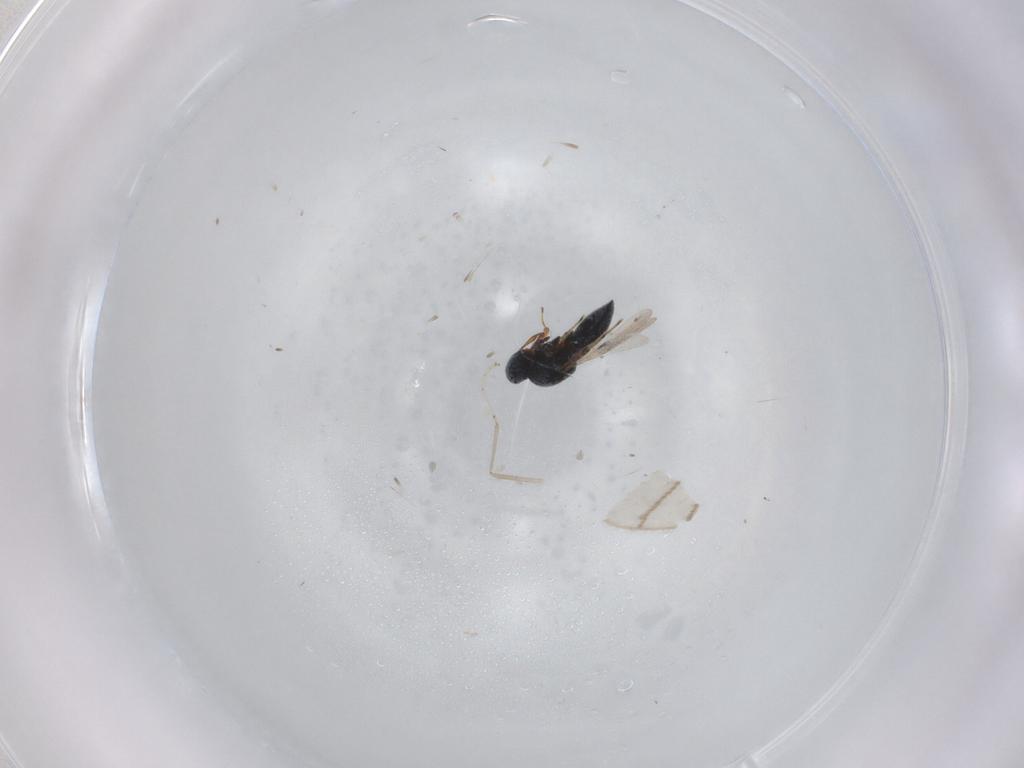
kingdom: Animalia
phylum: Arthropoda
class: Insecta
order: Hymenoptera
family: Platygastridae
